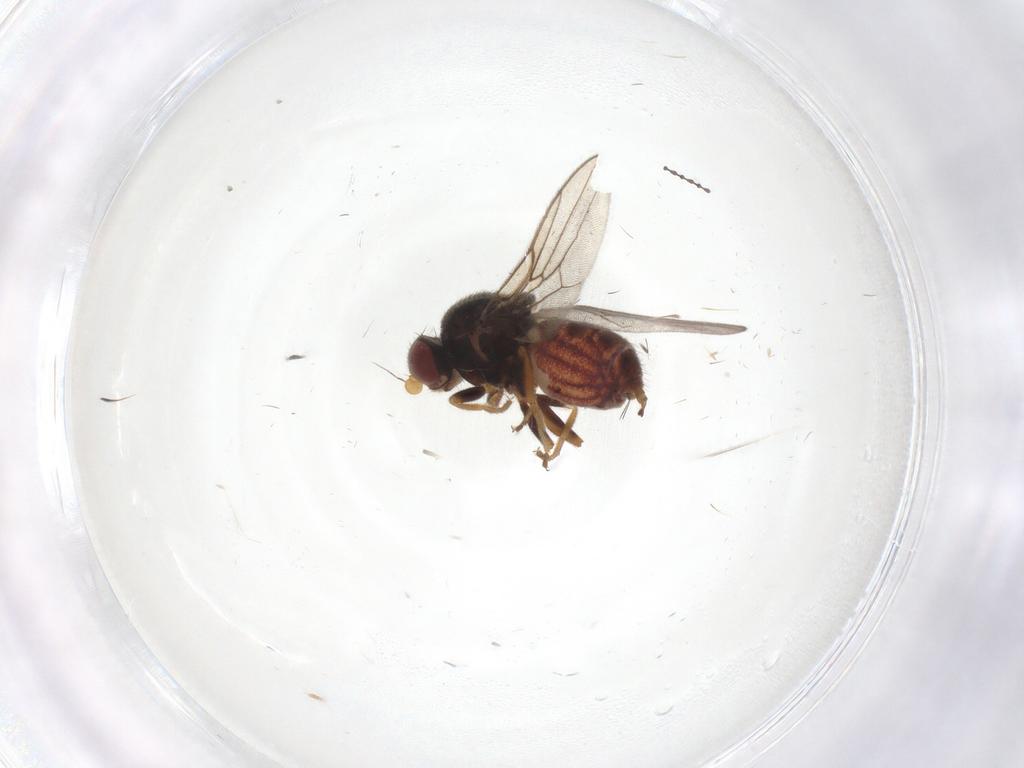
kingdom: Animalia
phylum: Arthropoda
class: Insecta
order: Diptera
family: Chloropidae
